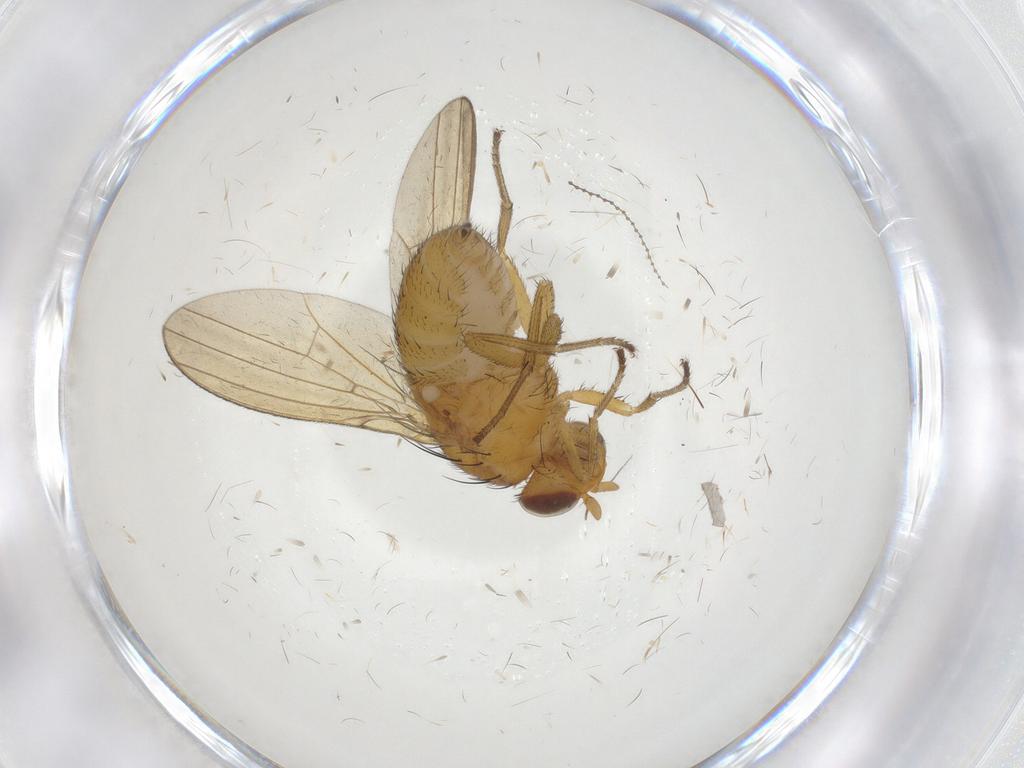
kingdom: Animalia
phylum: Arthropoda
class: Insecta
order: Diptera
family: Cecidomyiidae
